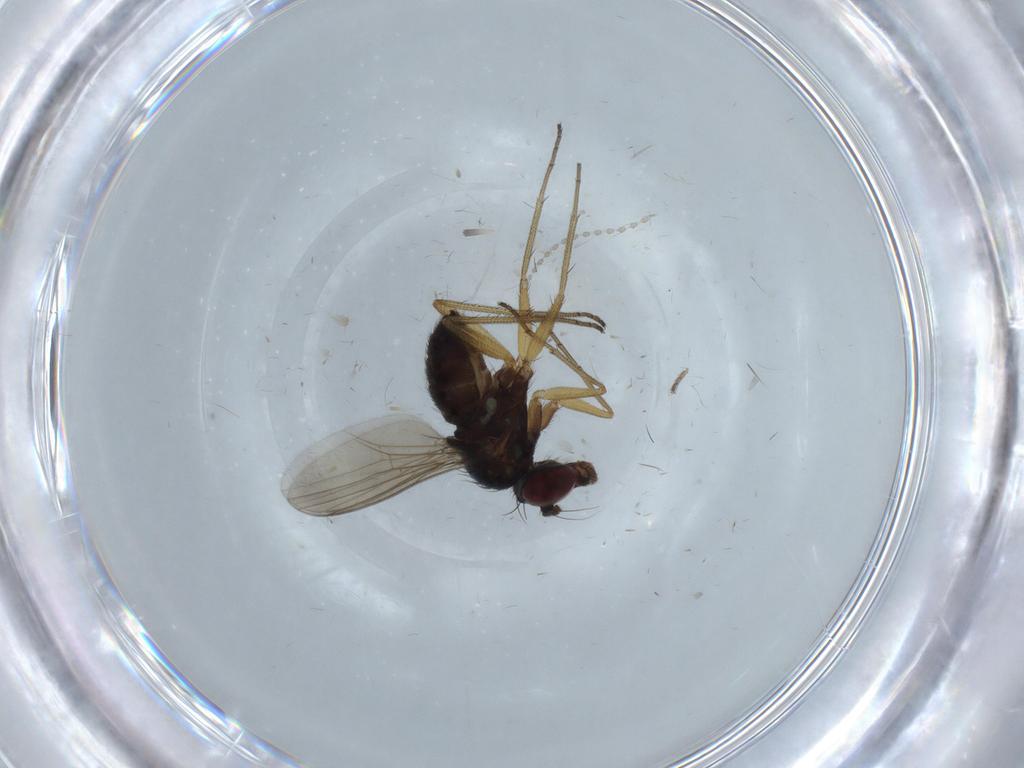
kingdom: Animalia
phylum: Arthropoda
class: Insecta
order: Diptera
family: Dolichopodidae
